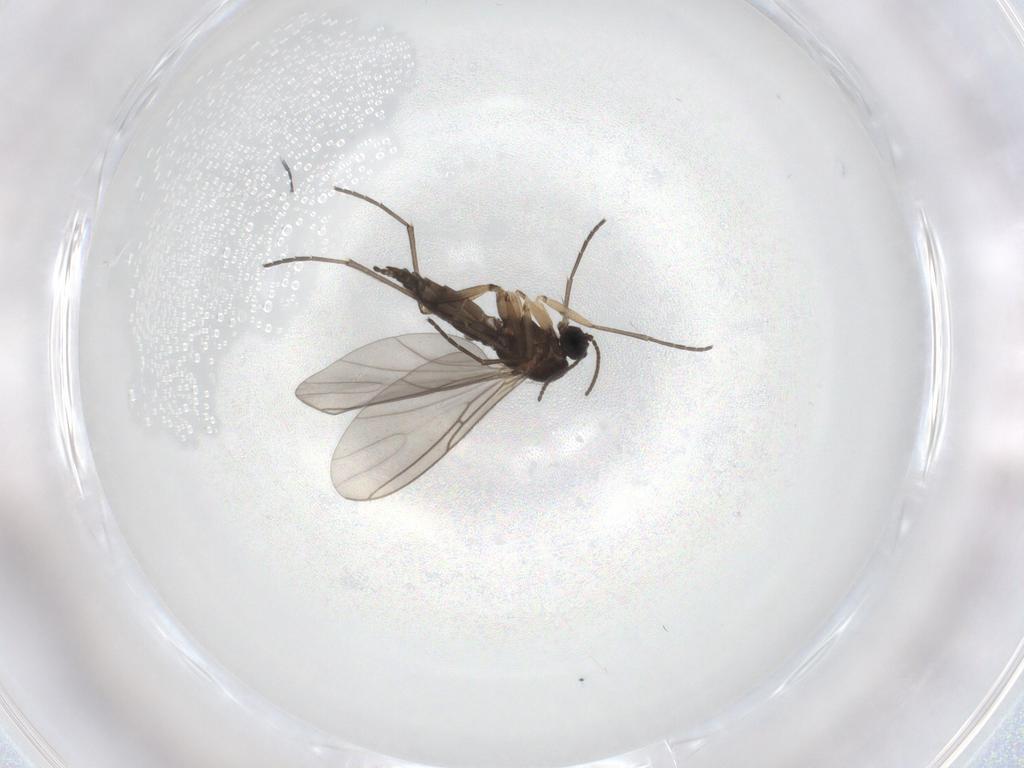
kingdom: Animalia
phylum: Arthropoda
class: Insecta
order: Diptera
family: Sciaridae
